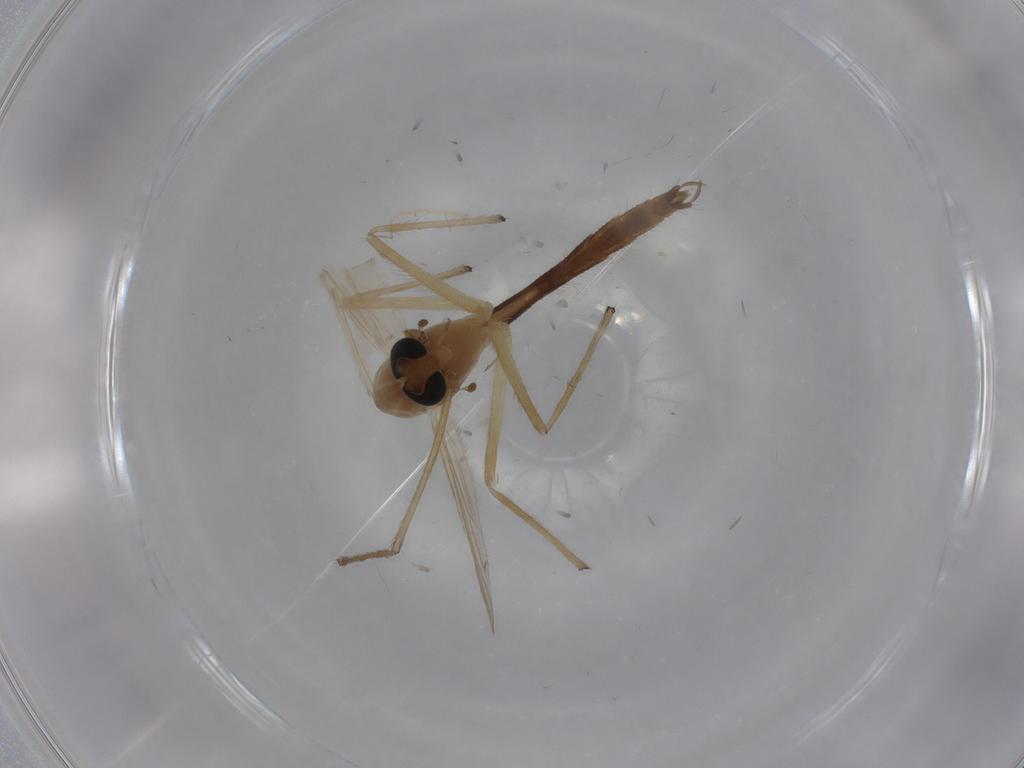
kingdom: Animalia
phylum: Arthropoda
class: Insecta
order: Diptera
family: Chironomidae
